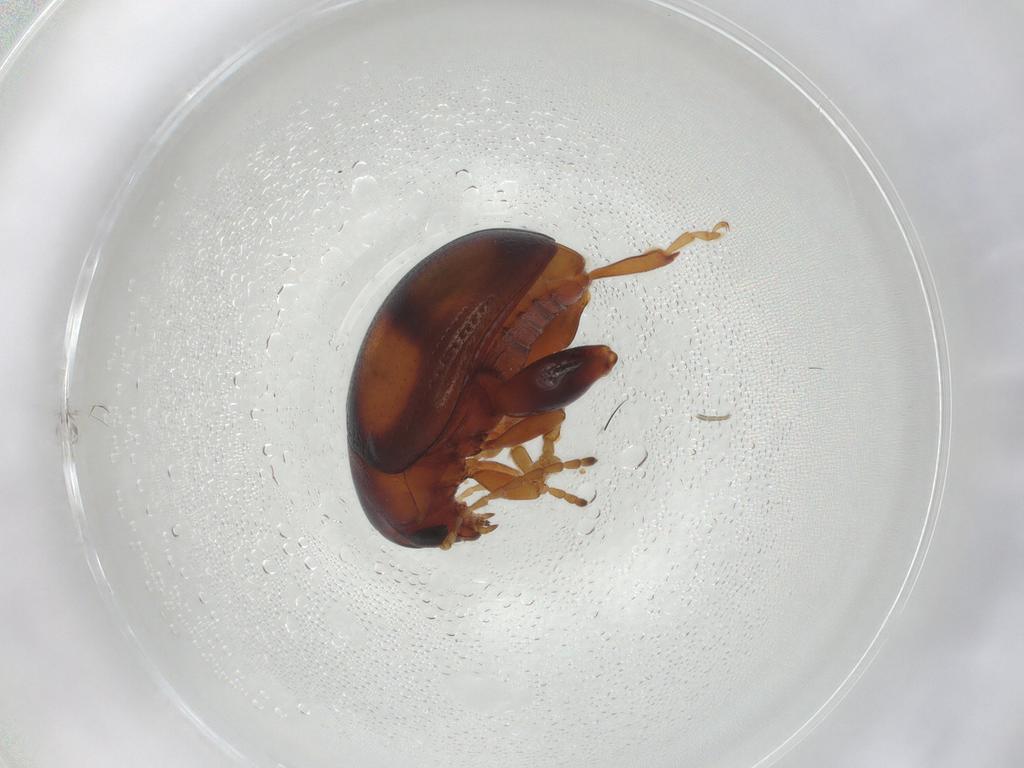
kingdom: Animalia
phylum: Arthropoda
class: Insecta
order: Coleoptera
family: Chrysomelidae
